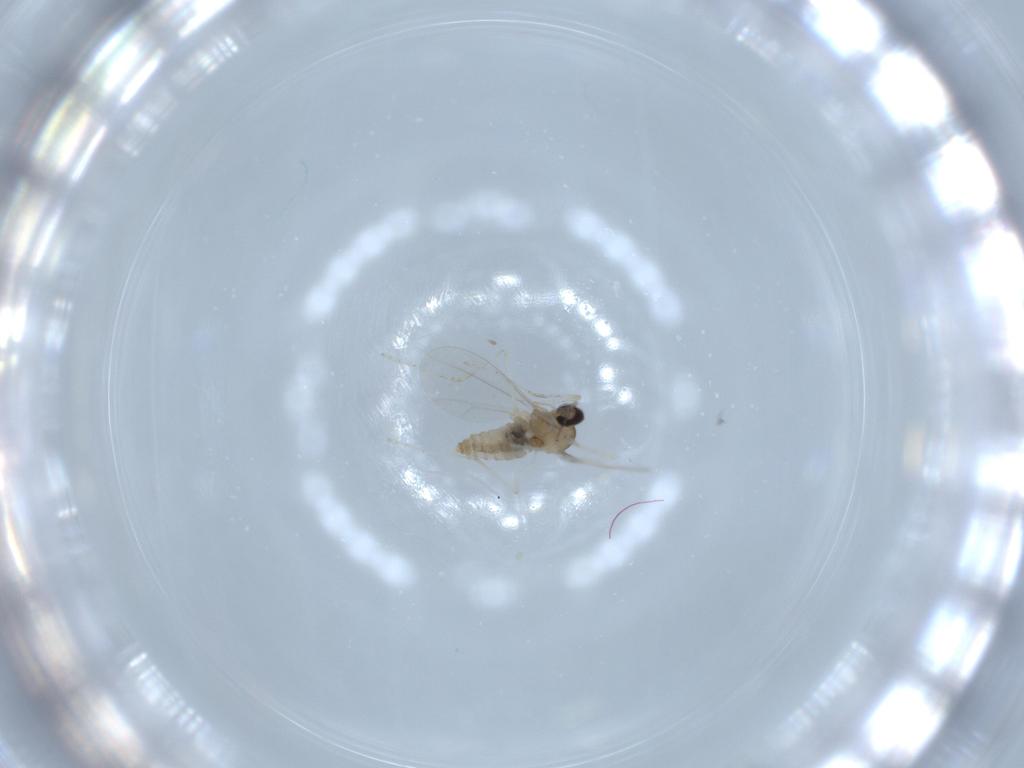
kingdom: Animalia
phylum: Arthropoda
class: Insecta
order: Diptera
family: Cecidomyiidae
